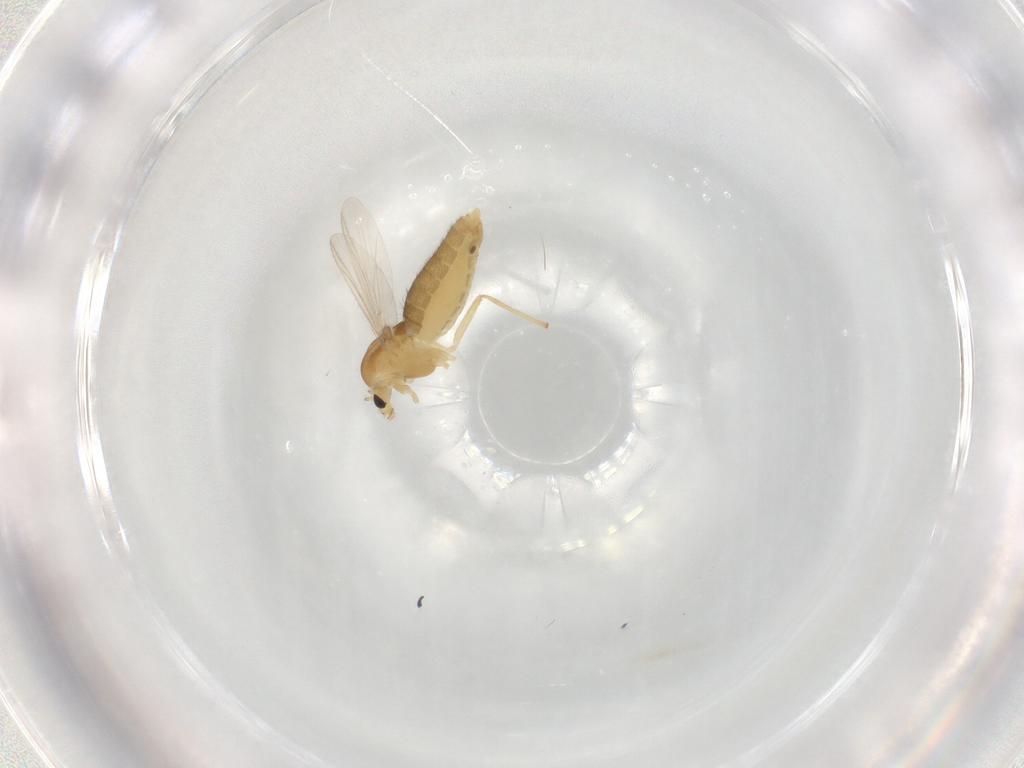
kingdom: Animalia
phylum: Arthropoda
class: Insecta
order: Diptera
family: Chironomidae
